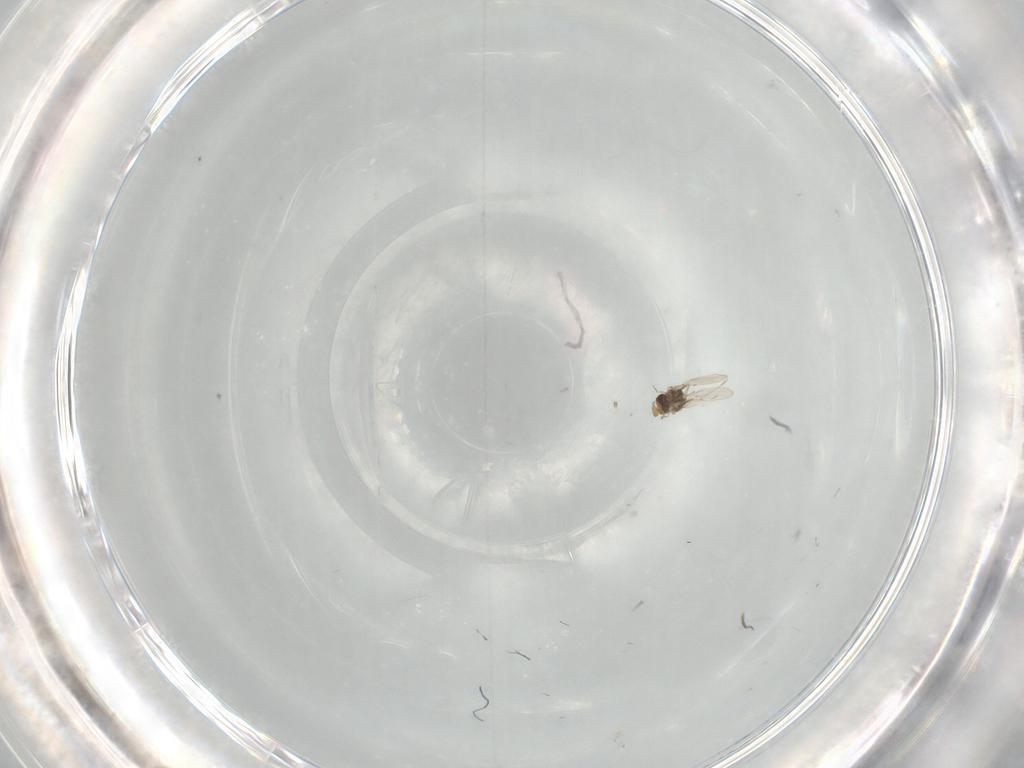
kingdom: Animalia
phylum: Arthropoda
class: Insecta
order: Hymenoptera
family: Encyrtidae
